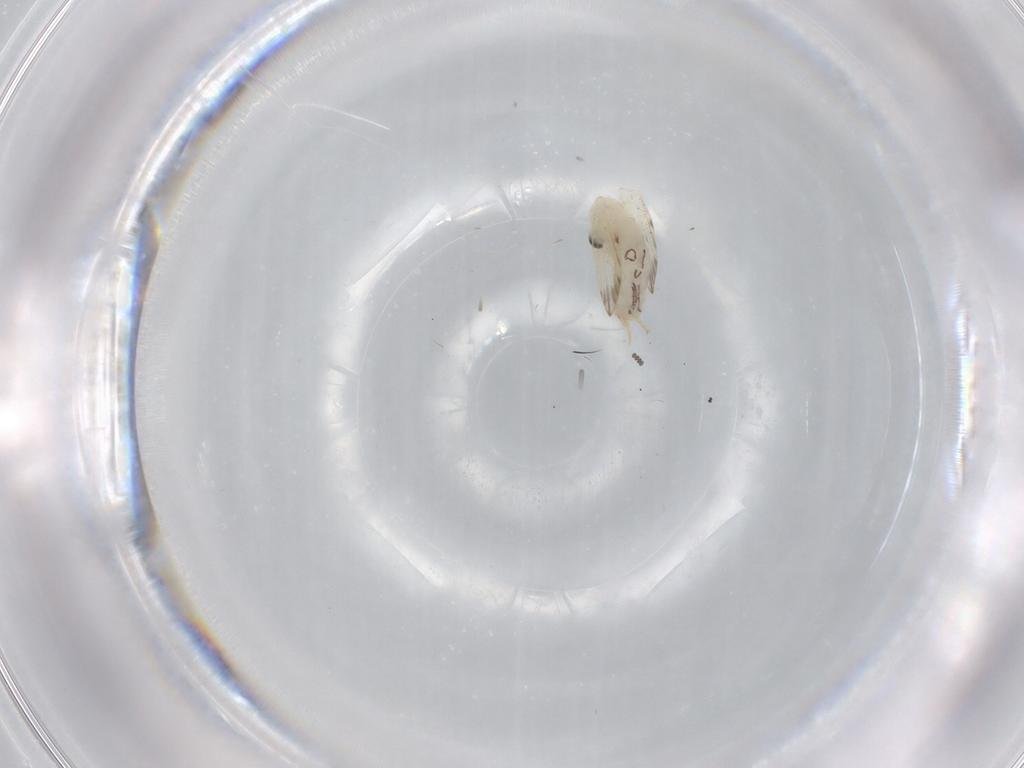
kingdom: Animalia
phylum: Arthropoda
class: Insecta
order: Diptera
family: Psychodidae
